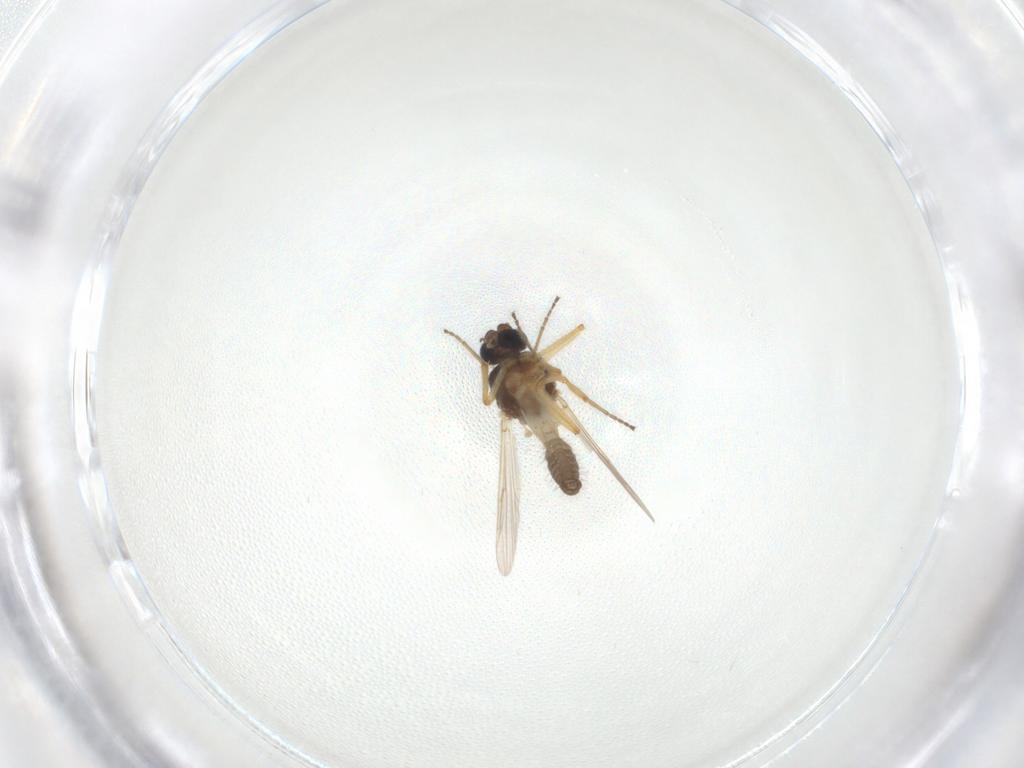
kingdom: Animalia
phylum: Arthropoda
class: Insecta
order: Diptera
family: Ceratopogonidae
